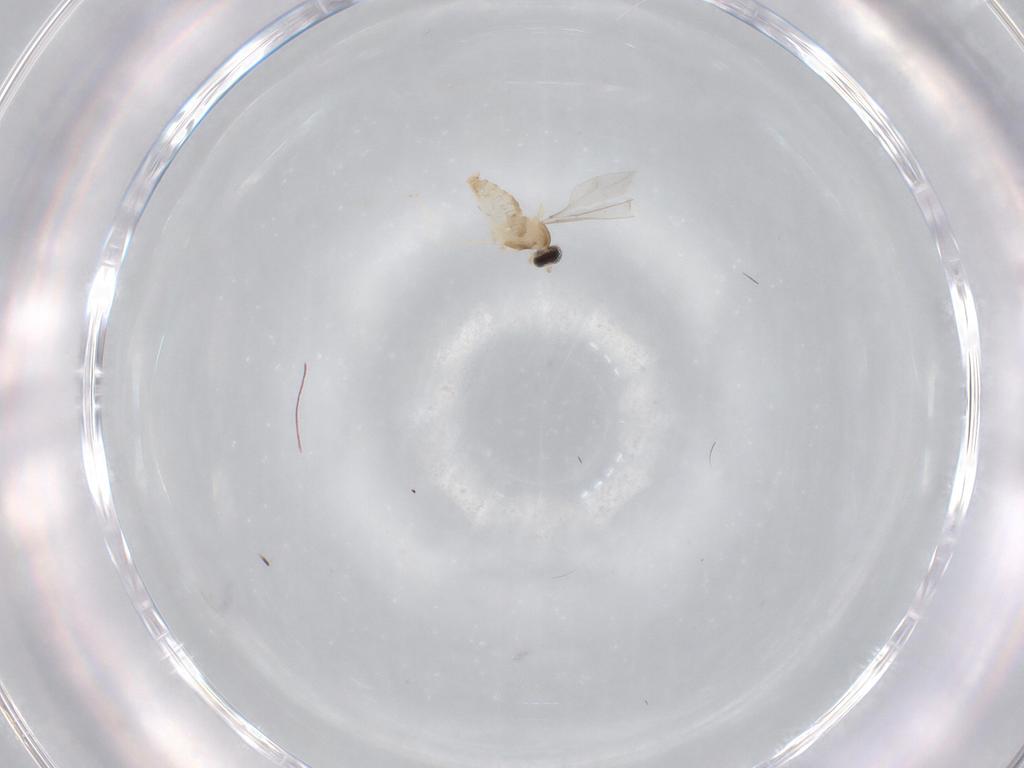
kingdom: Animalia
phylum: Arthropoda
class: Insecta
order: Diptera
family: Cecidomyiidae
